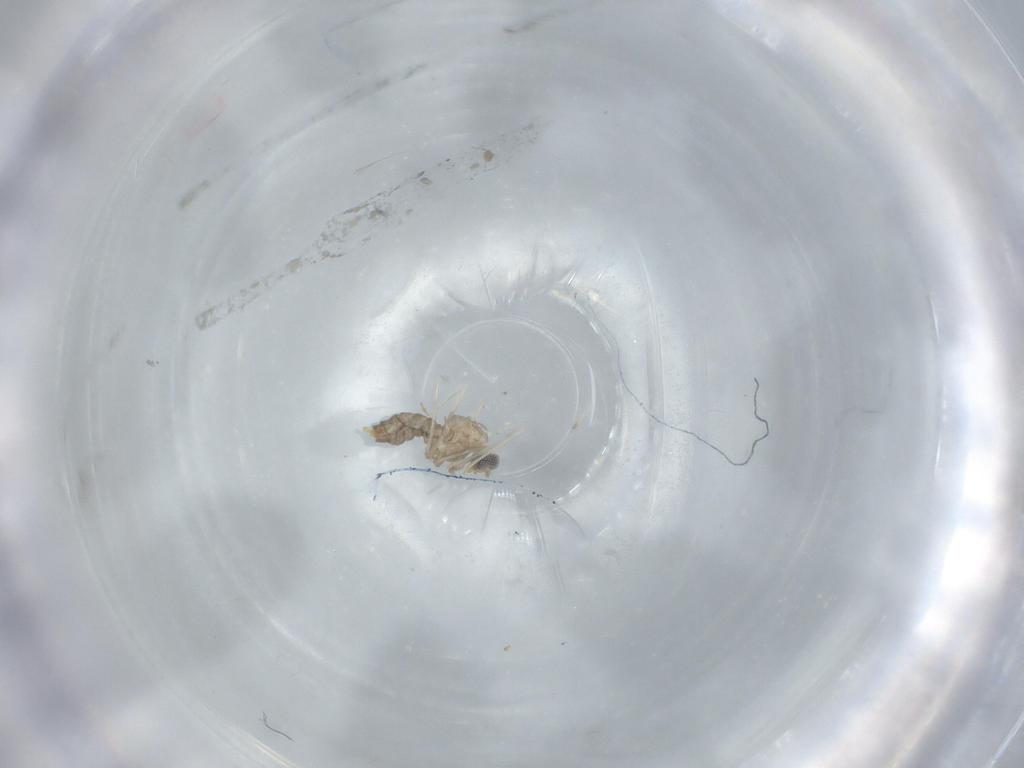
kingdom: Animalia
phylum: Arthropoda
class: Insecta
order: Diptera
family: Cecidomyiidae
